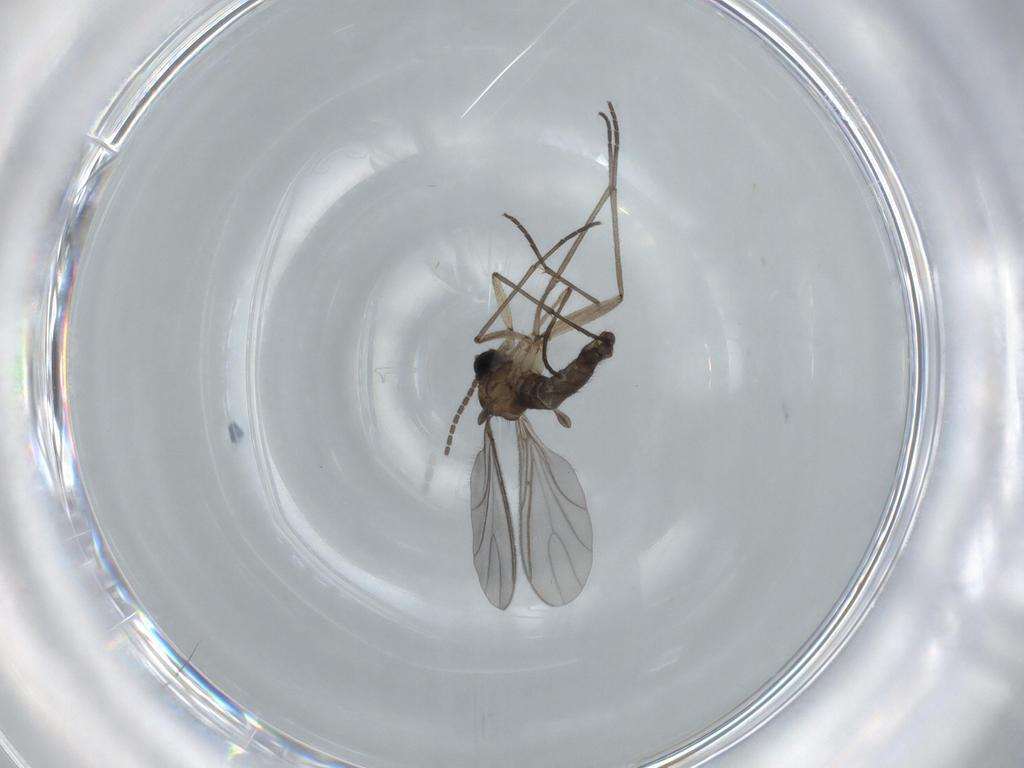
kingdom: Animalia
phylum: Arthropoda
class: Insecta
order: Diptera
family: Sciaridae
